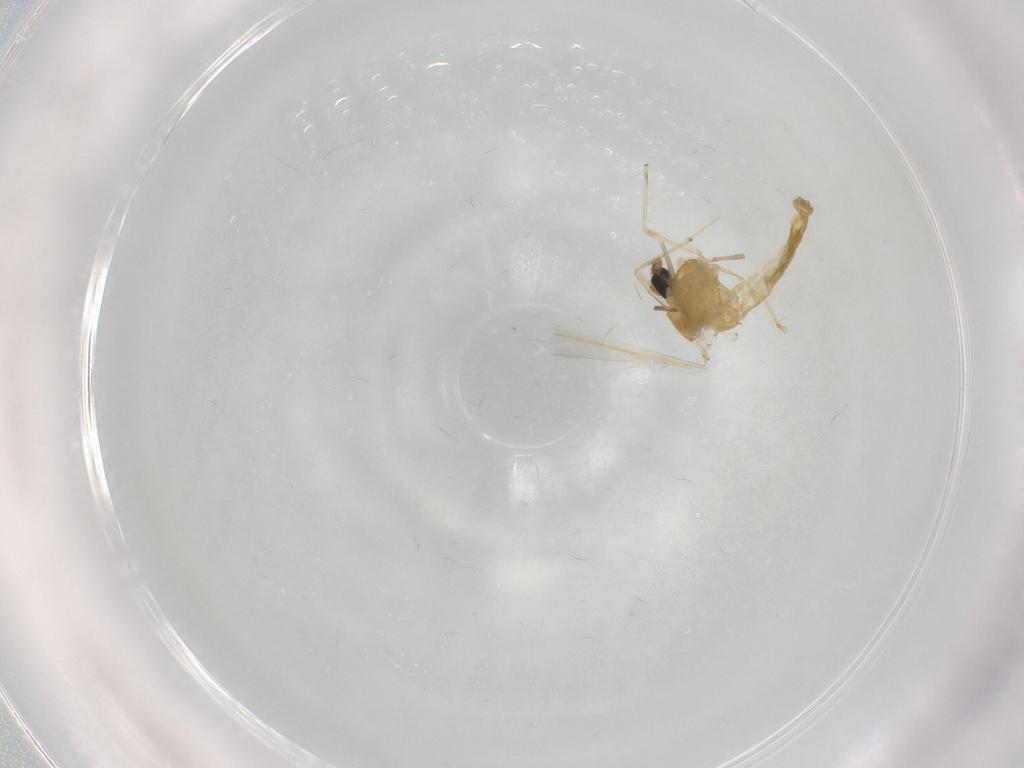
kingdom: Animalia
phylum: Arthropoda
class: Insecta
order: Diptera
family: Chironomidae
